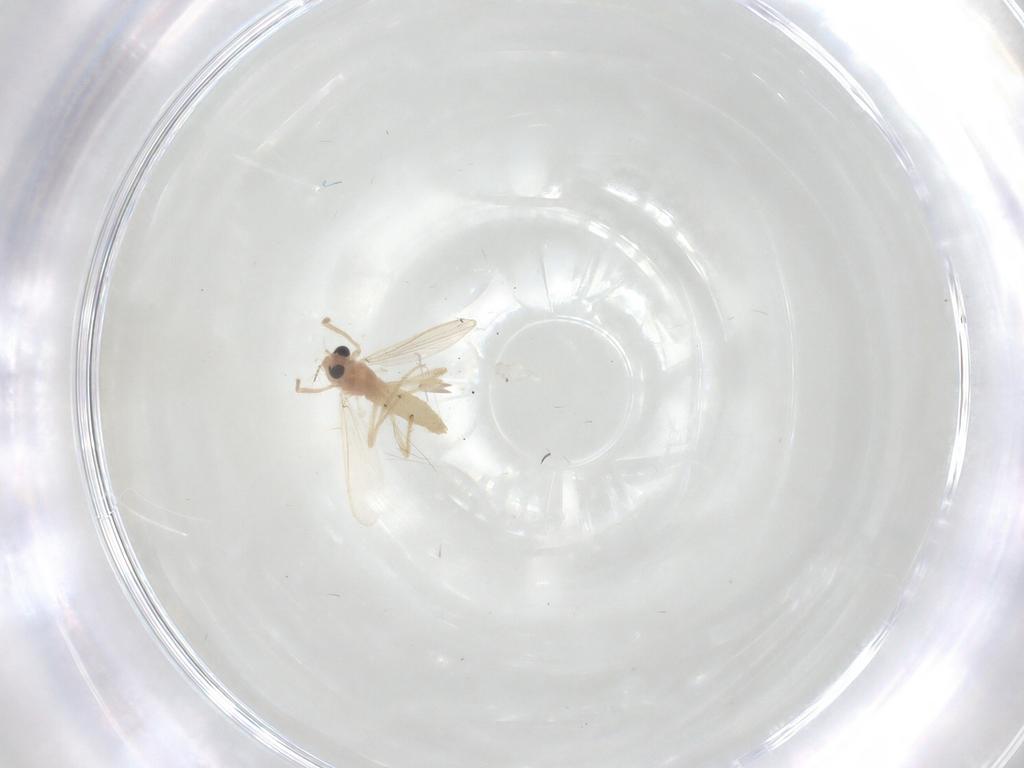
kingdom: Animalia
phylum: Arthropoda
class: Insecta
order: Diptera
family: Chironomidae
